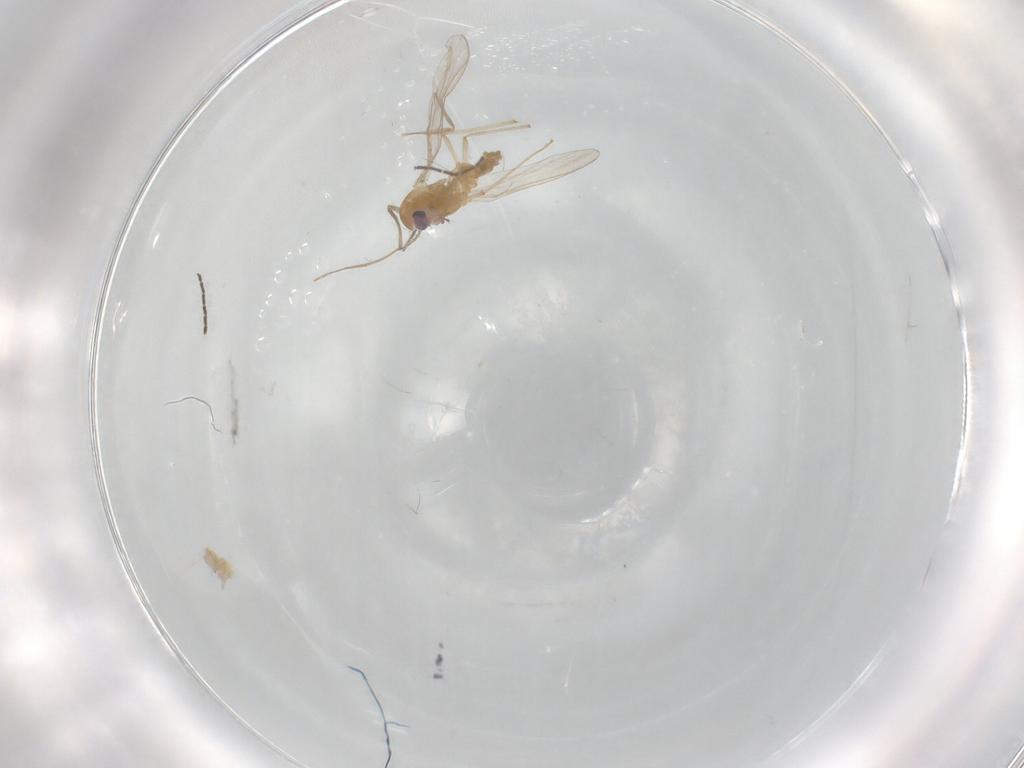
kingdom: Animalia
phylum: Arthropoda
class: Insecta
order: Diptera
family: Chironomidae
